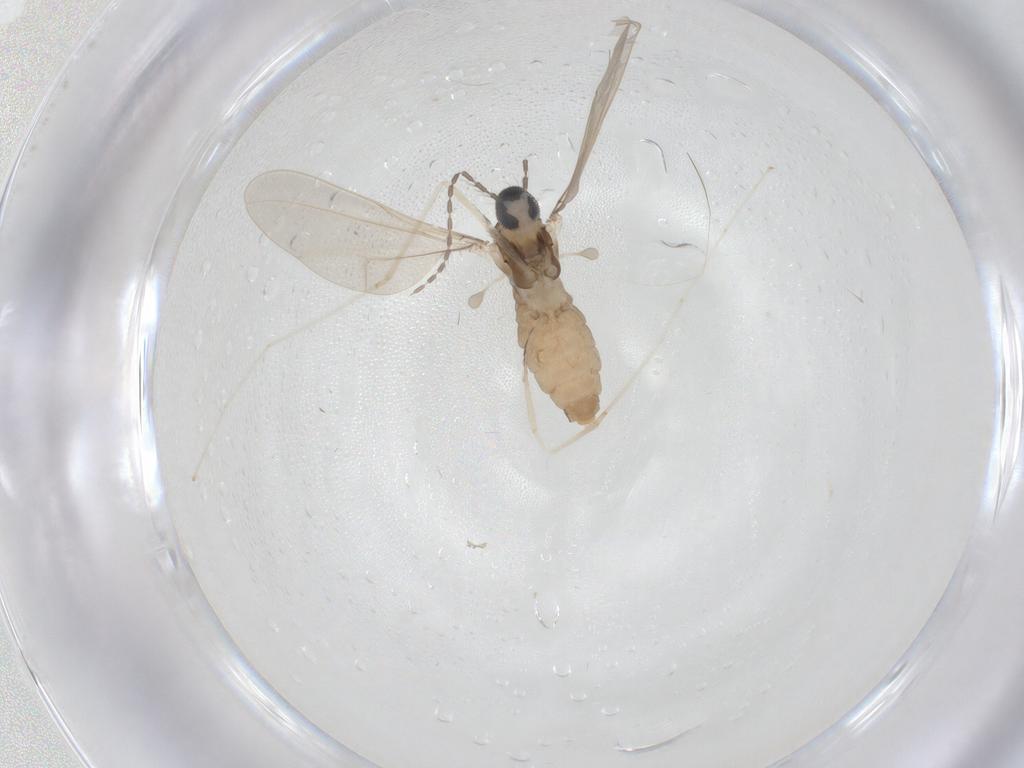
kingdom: Animalia
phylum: Arthropoda
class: Insecta
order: Diptera
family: Cecidomyiidae
